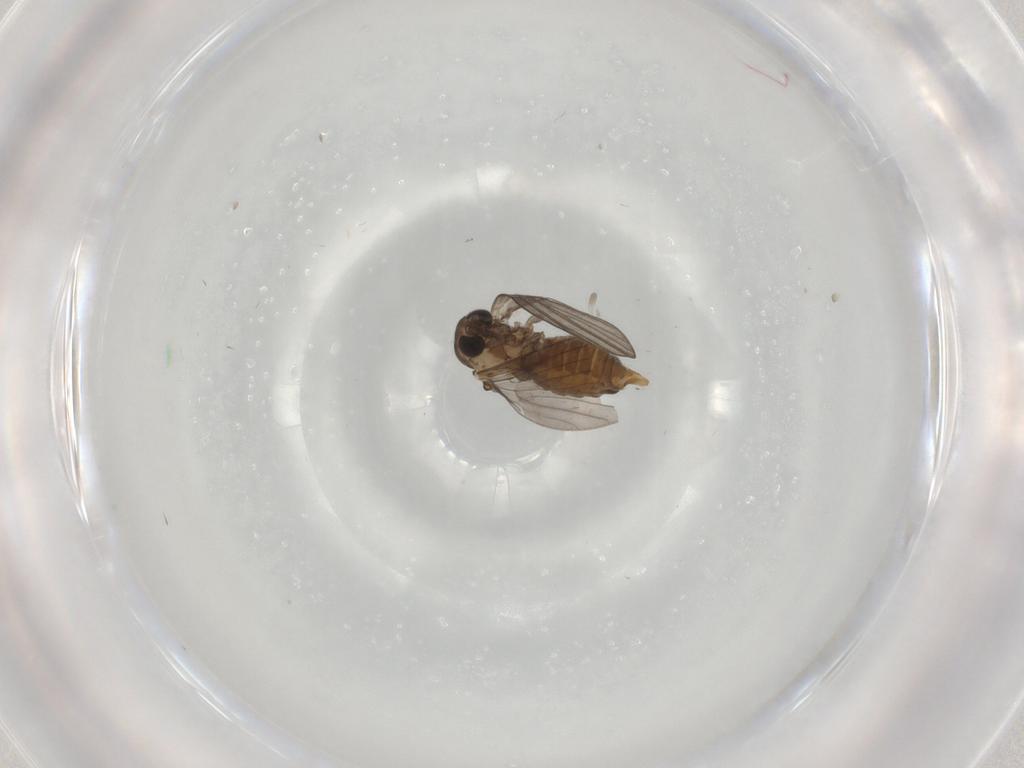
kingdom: Animalia
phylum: Arthropoda
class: Insecta
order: Diptera
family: Psychodidae
